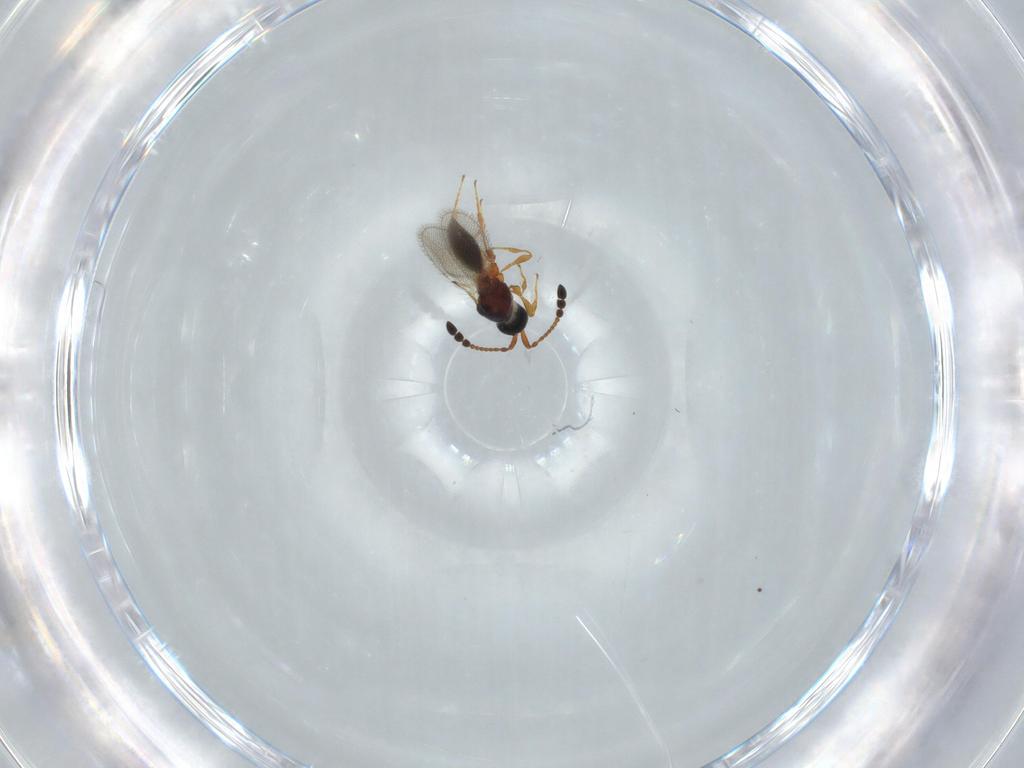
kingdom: Animalia
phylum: Arthropoda
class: Insecta
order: Hymenoptera
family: Diapriidae
